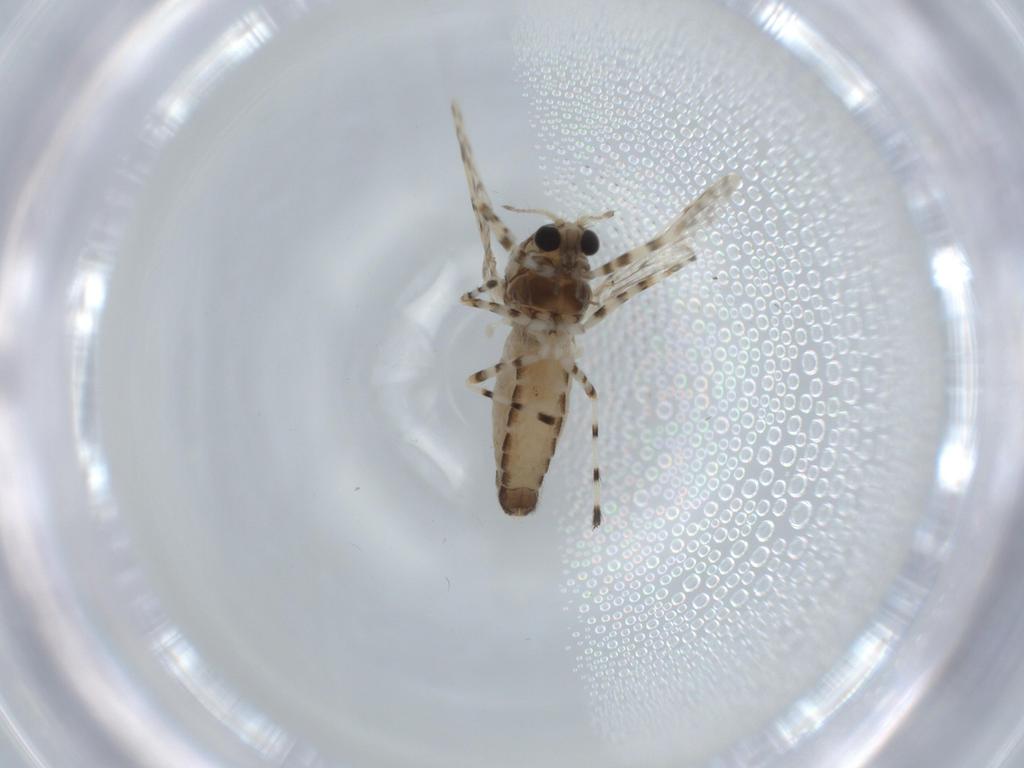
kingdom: Animalia
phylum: Arthropoda
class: Insecta
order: Diptera
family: Chironomidae
